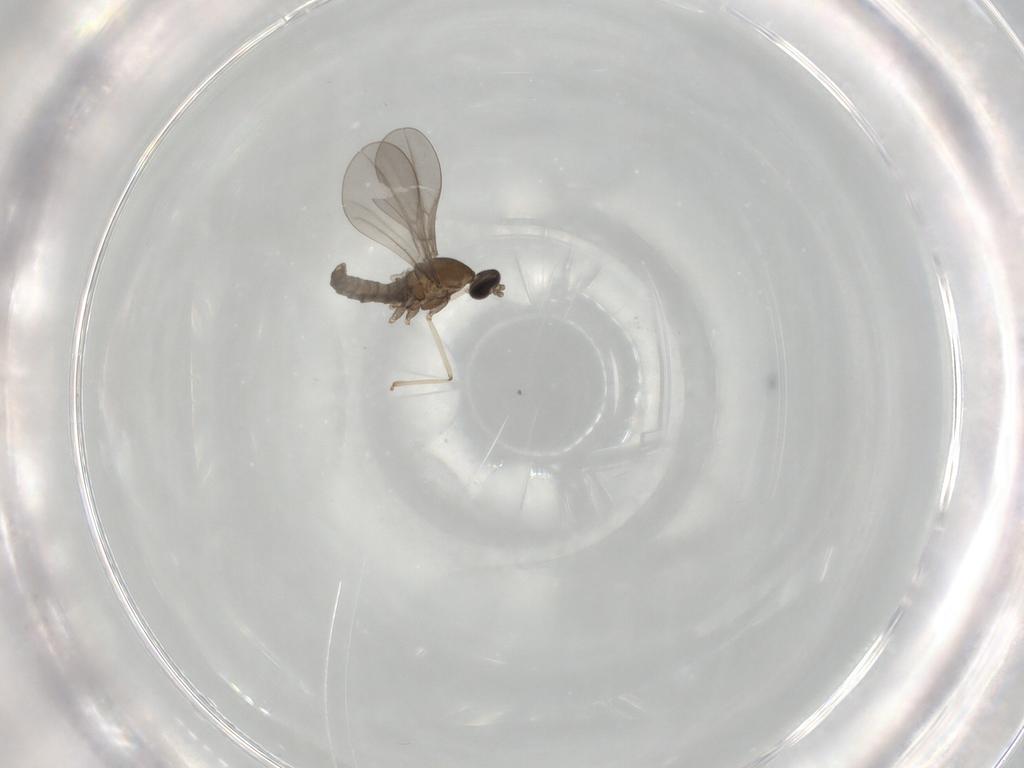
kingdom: Animalia
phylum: Arthropoda
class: Insecta
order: Diptera
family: Cecidomyiidae
